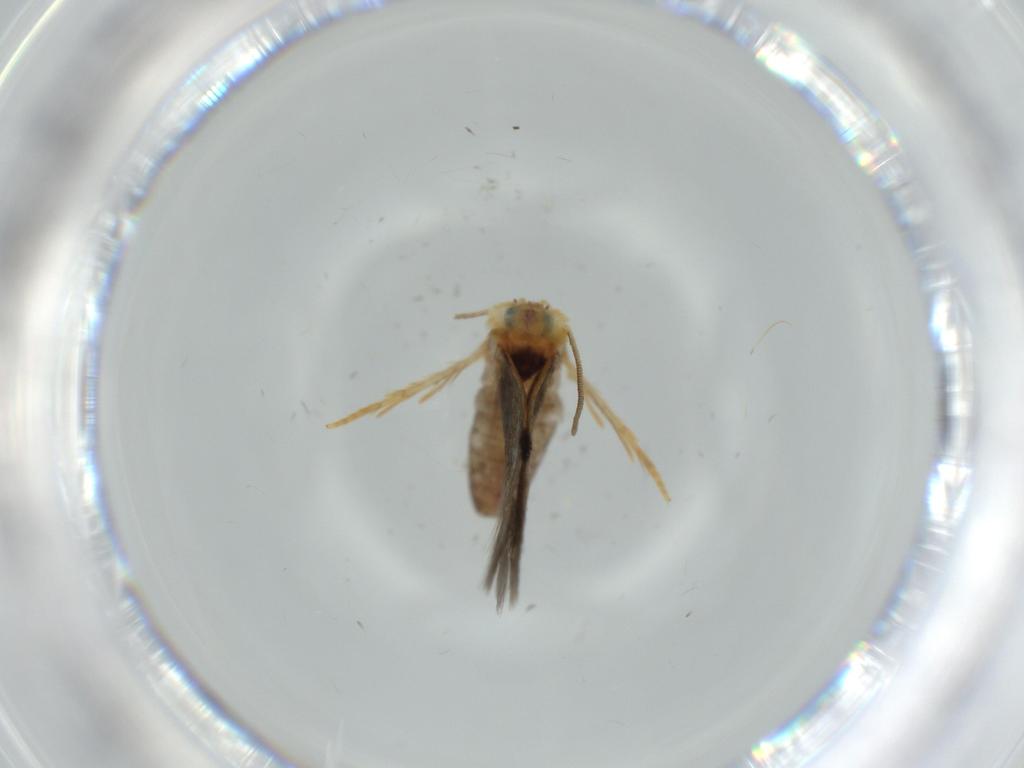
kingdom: Animalia
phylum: Arthropoda
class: Insecta
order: Lepidoptera
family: Nepticulidae
